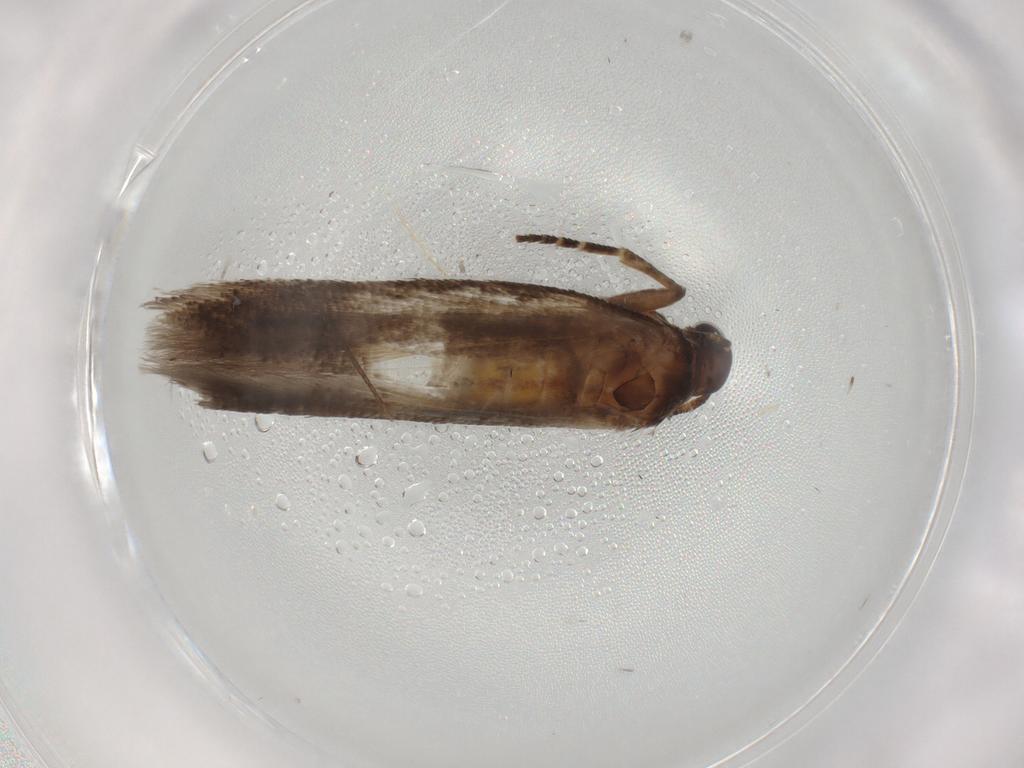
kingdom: Animalia
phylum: Arthropoda
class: Insecta
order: Lepidoptera
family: Gelechiidae
